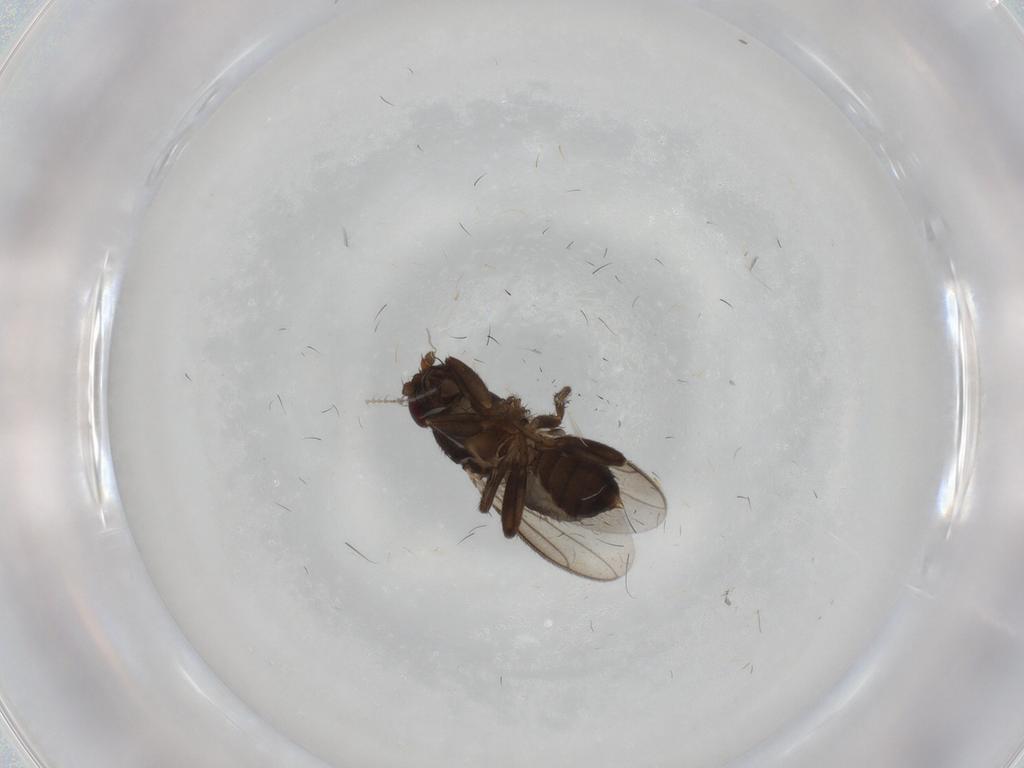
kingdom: Animalia
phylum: Arthropoda
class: Insecta
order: Diptera
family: Sphaeroceridae
